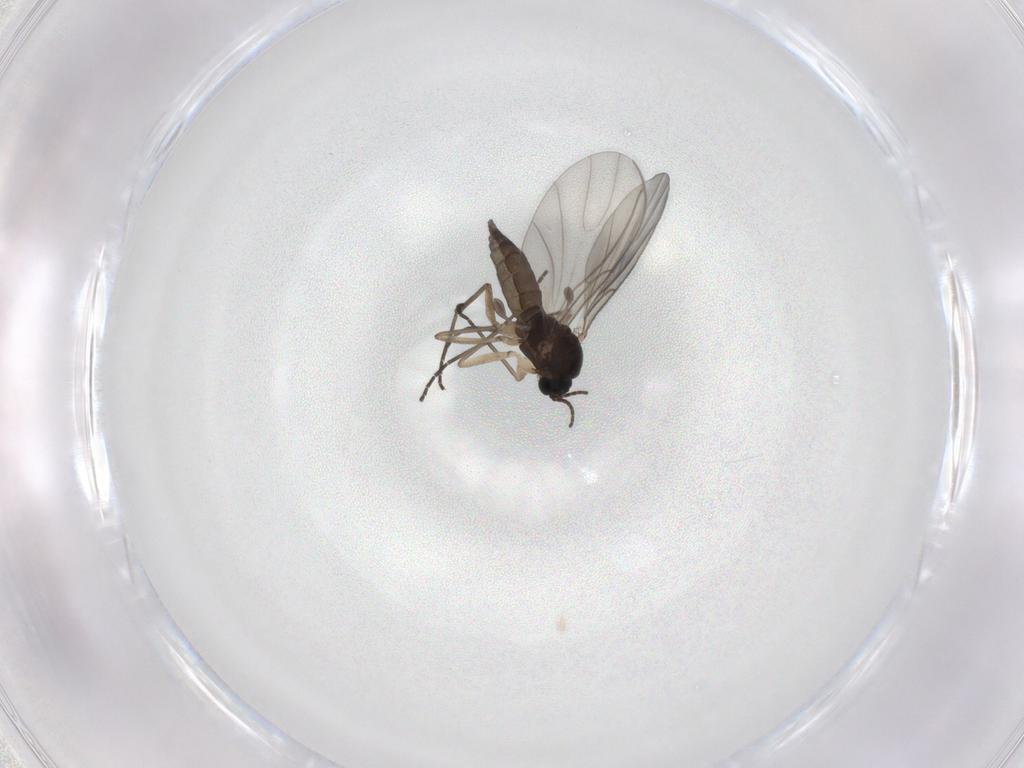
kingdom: Animalia
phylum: Arthropoda
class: Insecta
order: Diptera
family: Sciaridae
